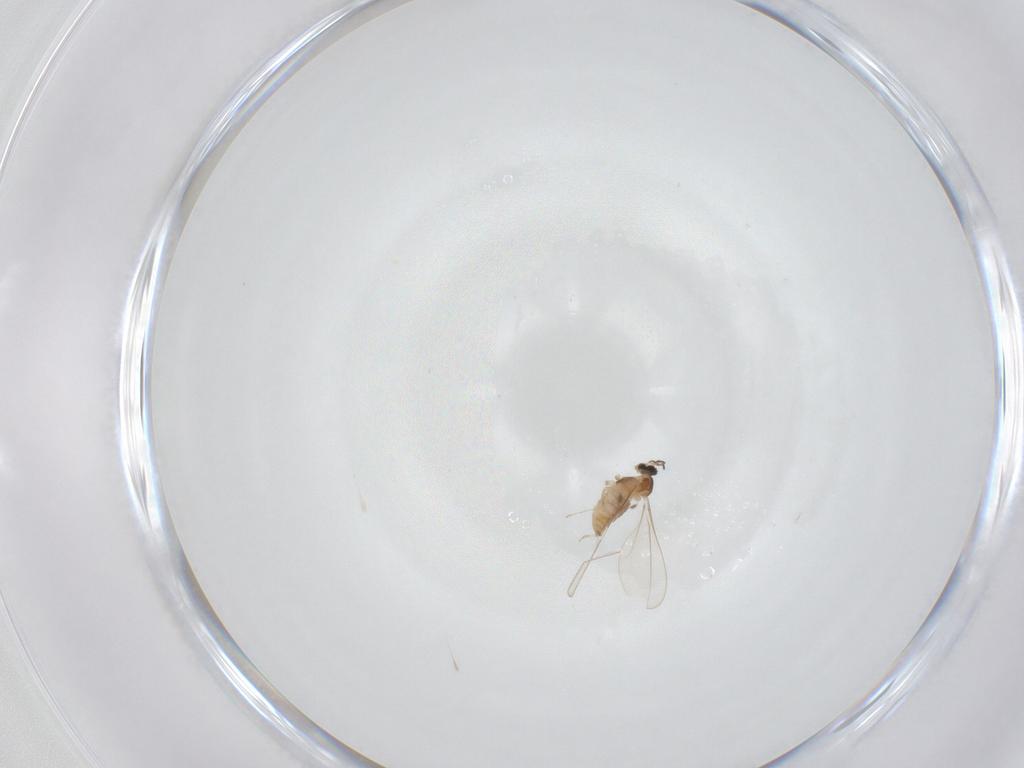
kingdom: Animalia
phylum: Arthropoda
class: Insecta
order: Diptera
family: Cecidomyiidae
